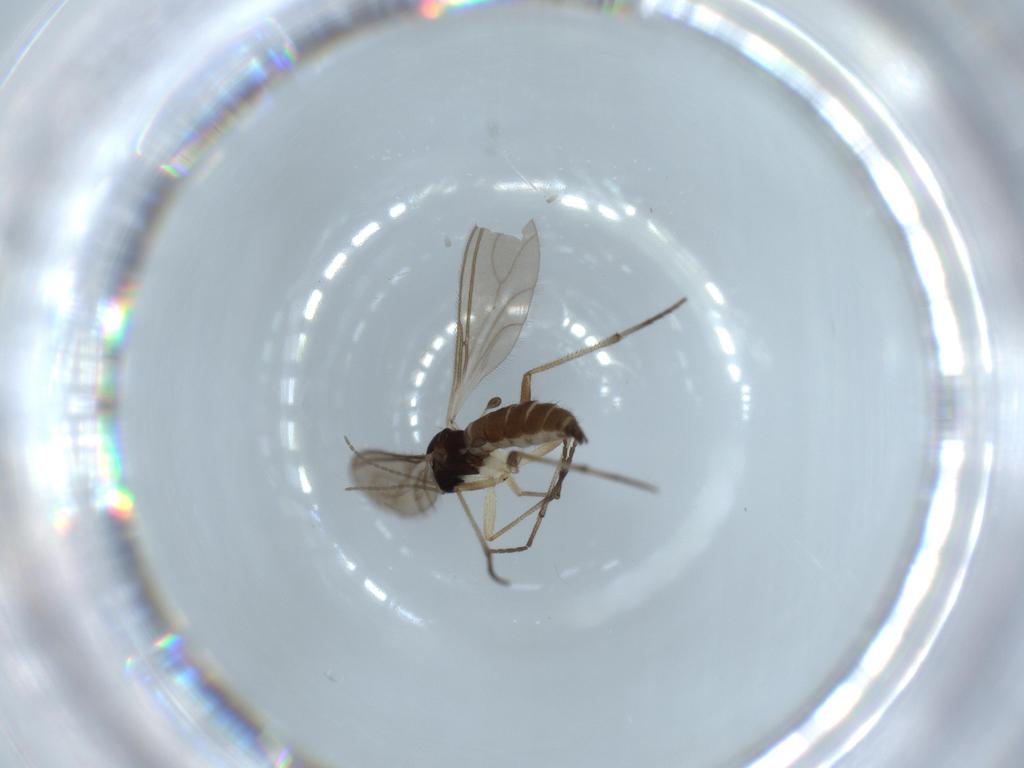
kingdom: Animalia
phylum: Arthropoda
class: Insecta
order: Diptera
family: Sciaridae
